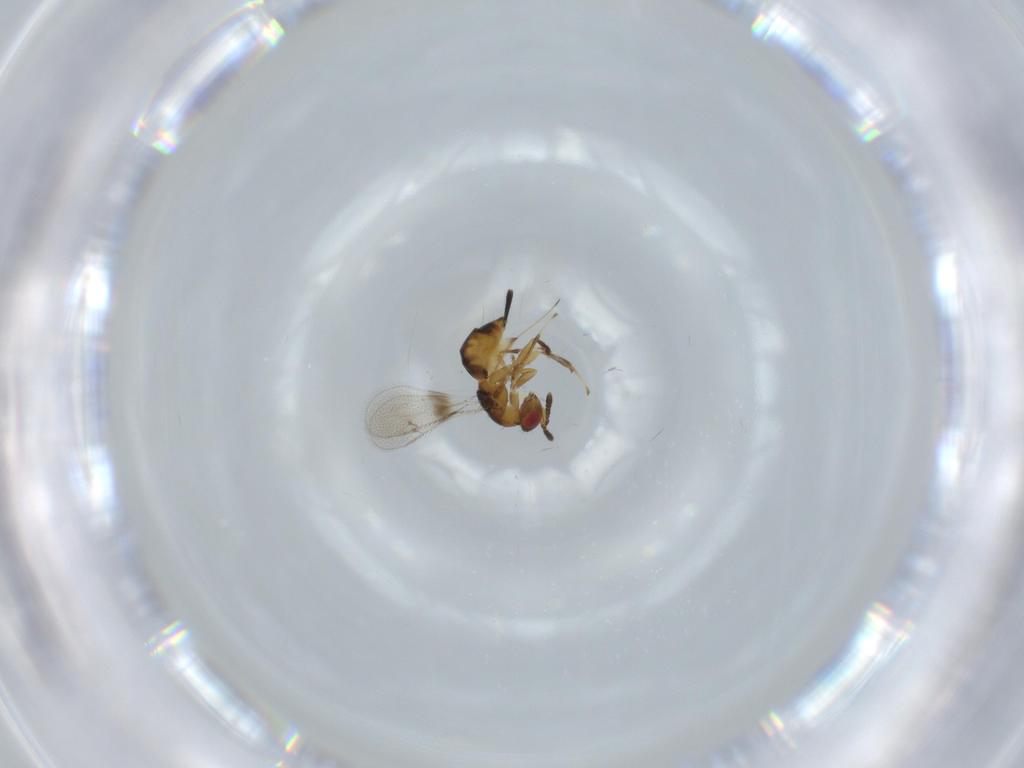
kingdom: Animalia
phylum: Arthropoda
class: Insecta
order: Hymenoptera
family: Torymidae
